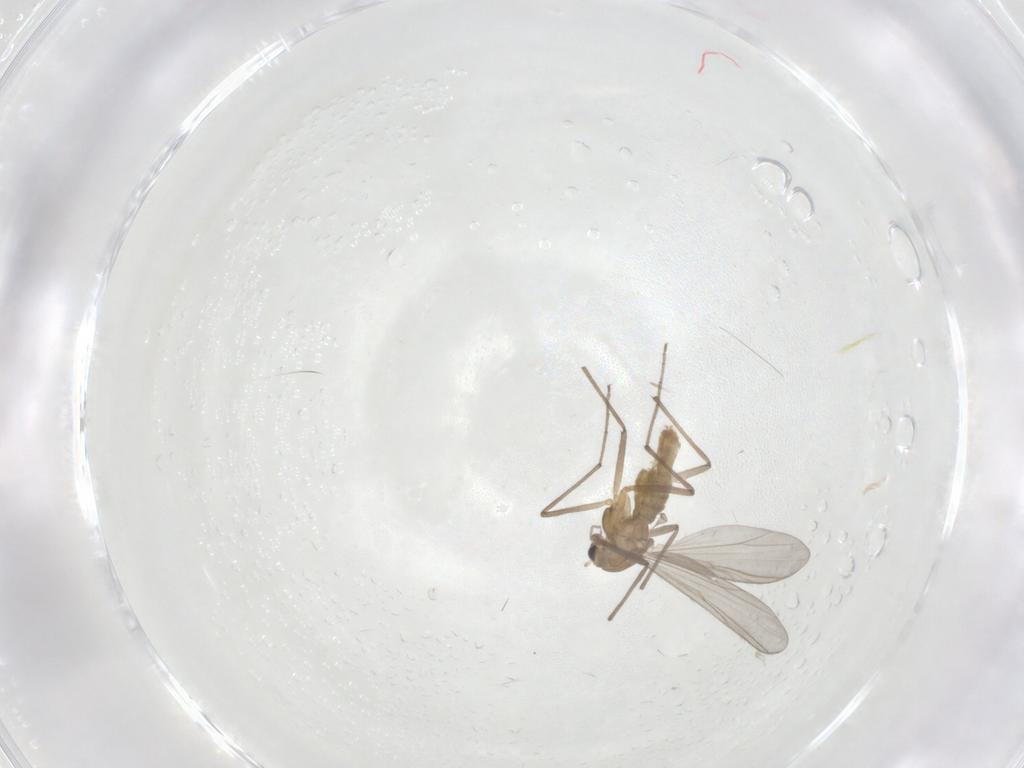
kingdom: Animalia
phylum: Arthropoda
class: Insecta
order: Diptera
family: Chironomidae
